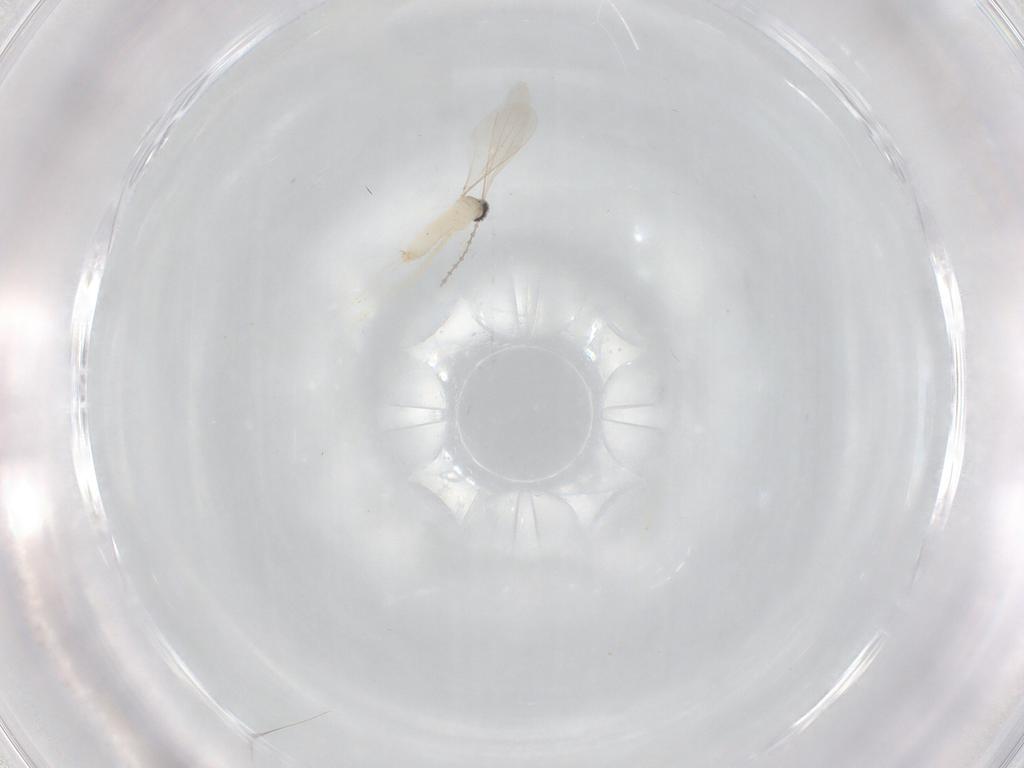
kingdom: Animalia
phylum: Arthropoda
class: Insecta
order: Diptera
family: Cecidomyiidae
